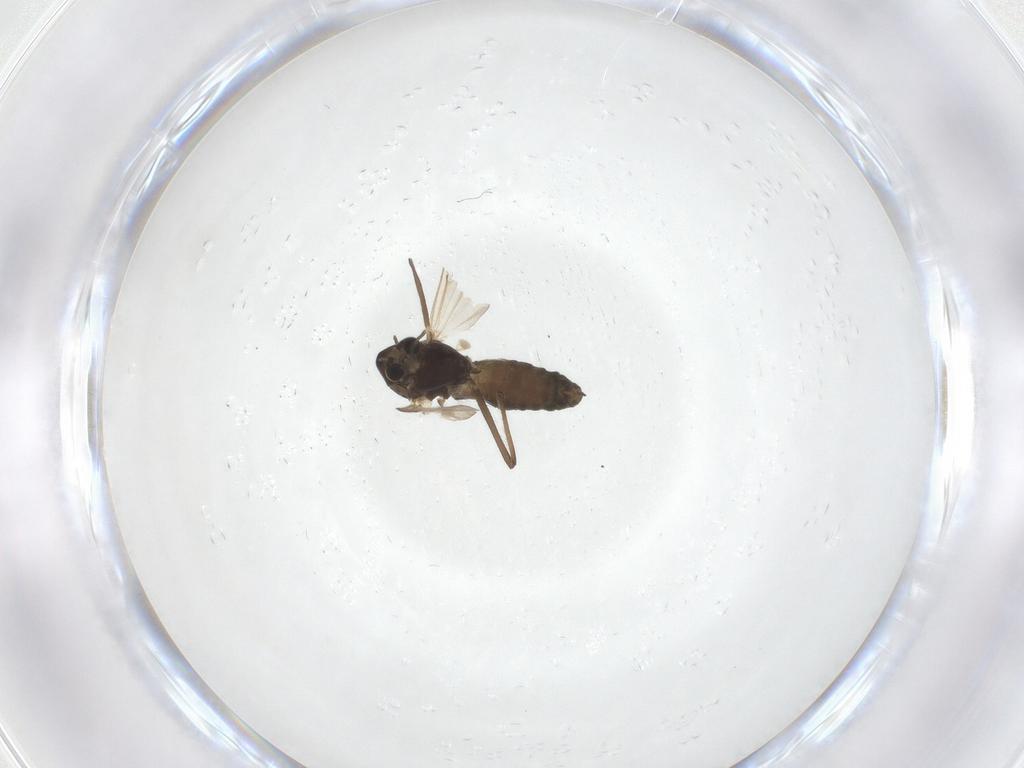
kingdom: Animalia
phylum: Arthropoda
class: Insecta
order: Diptera
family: Chironomidae
